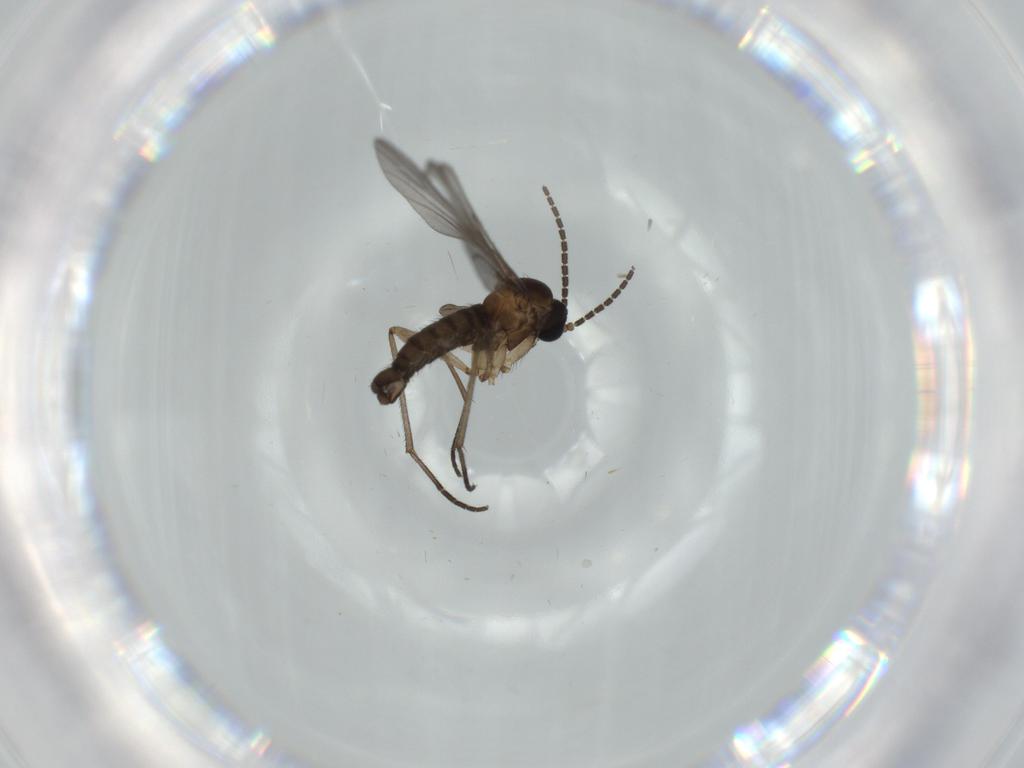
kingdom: Animalia
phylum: Arthropoda
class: Insecta
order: Diptera
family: Sciaridae
